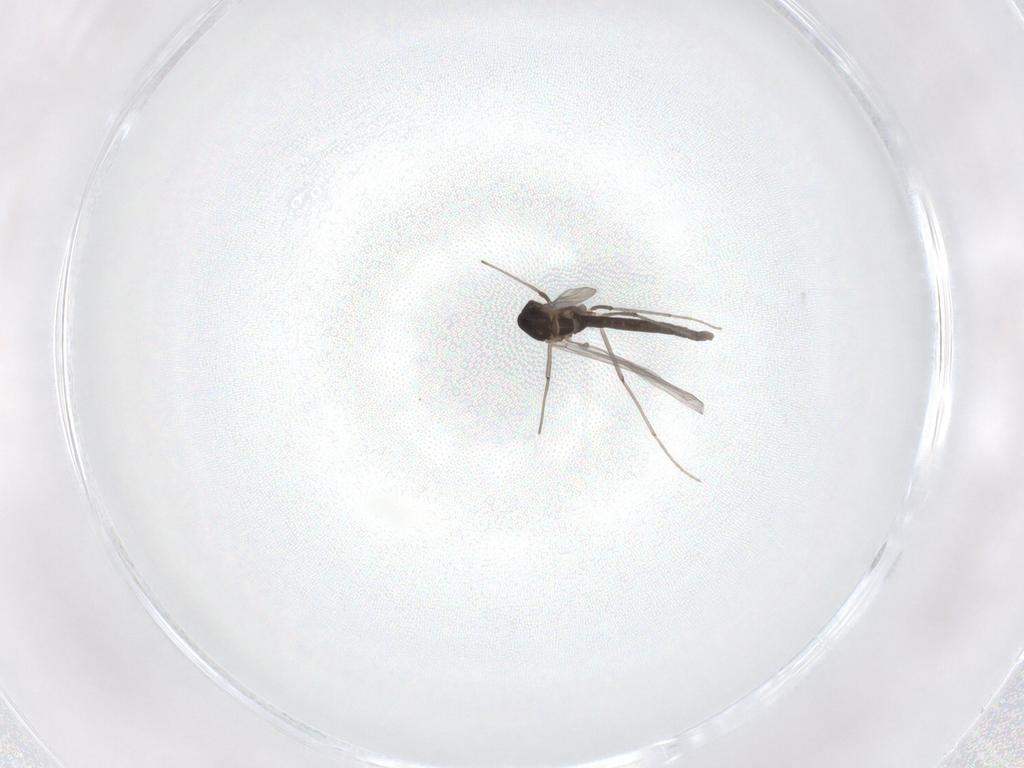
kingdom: Animalia
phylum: Arthropoda
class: Insecta
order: Diptera
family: Chironomidae
